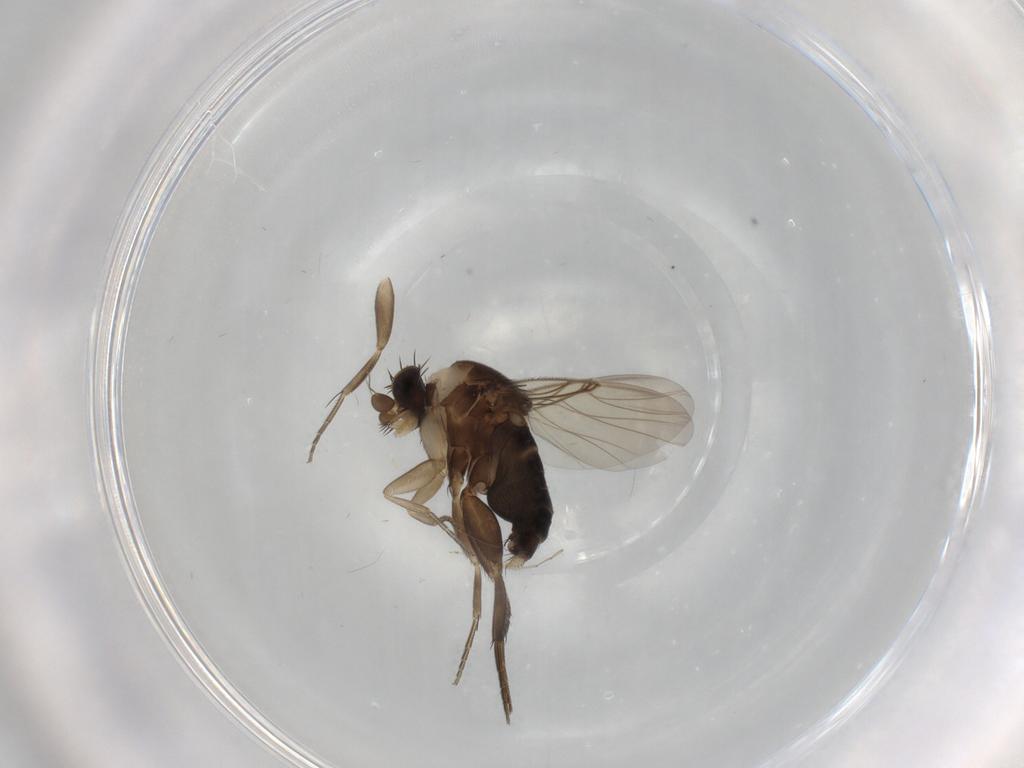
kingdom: Animalia
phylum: Arthropoda
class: Insecta
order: Diptera
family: Phoridae
